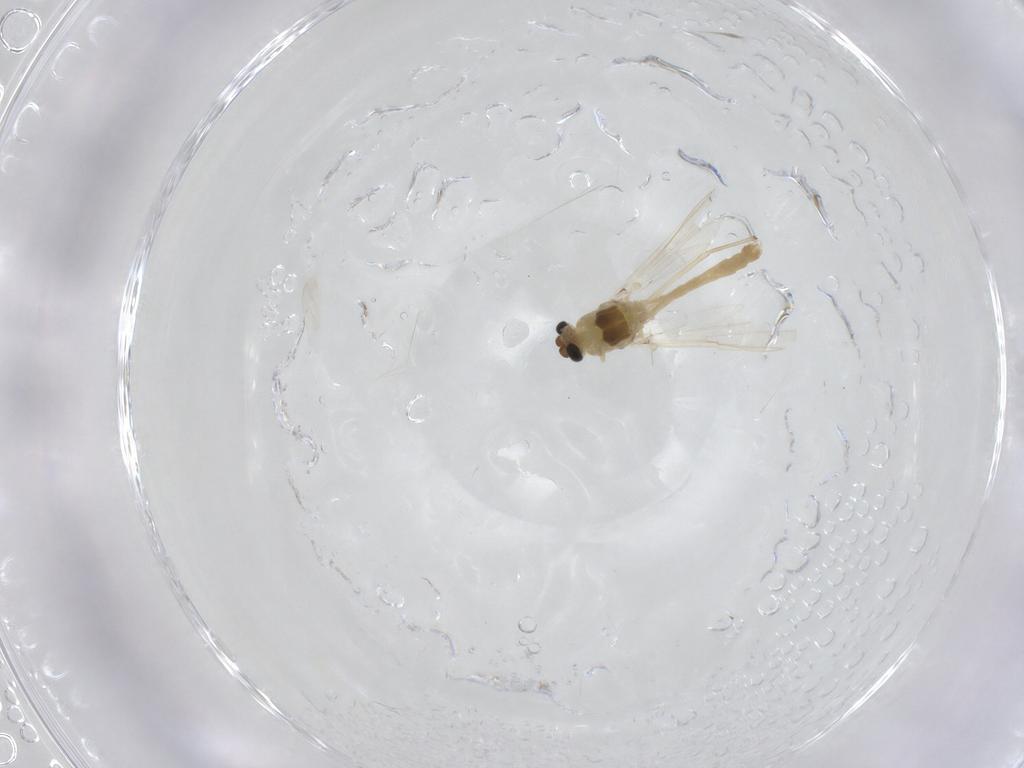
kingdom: Animalia
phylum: Arthropoda
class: Insecta
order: Diptera
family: Chironomidae
